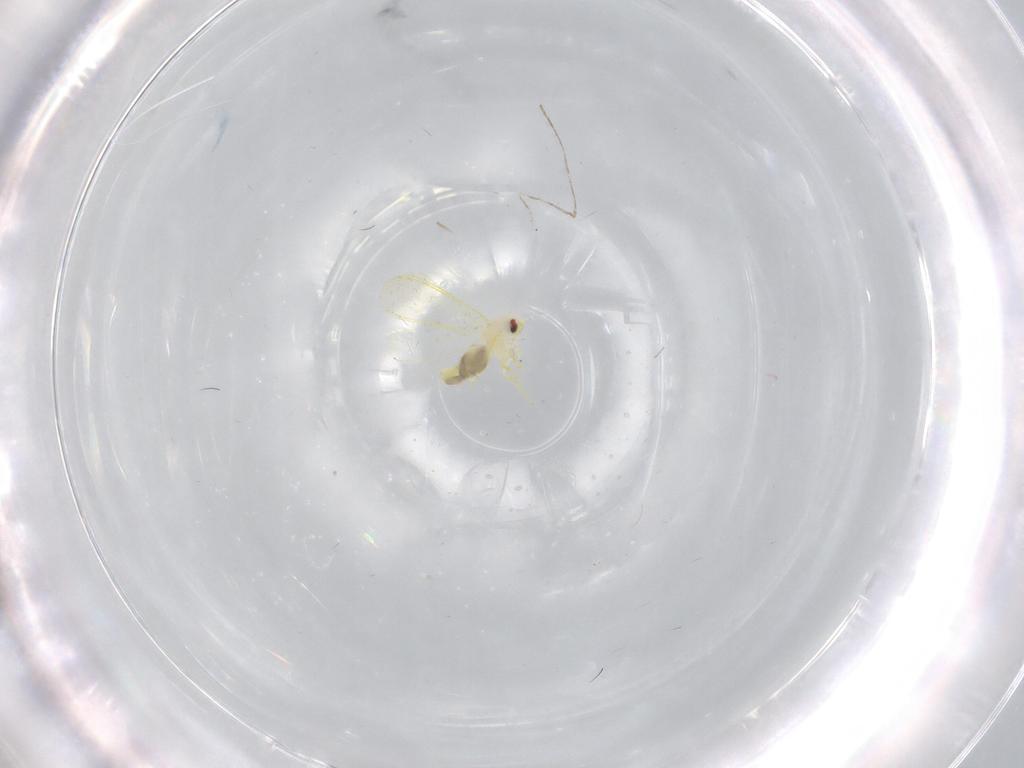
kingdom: Animalia
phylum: Arthropoda
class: Insecta
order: Hemiptera
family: Aleyrodidae
